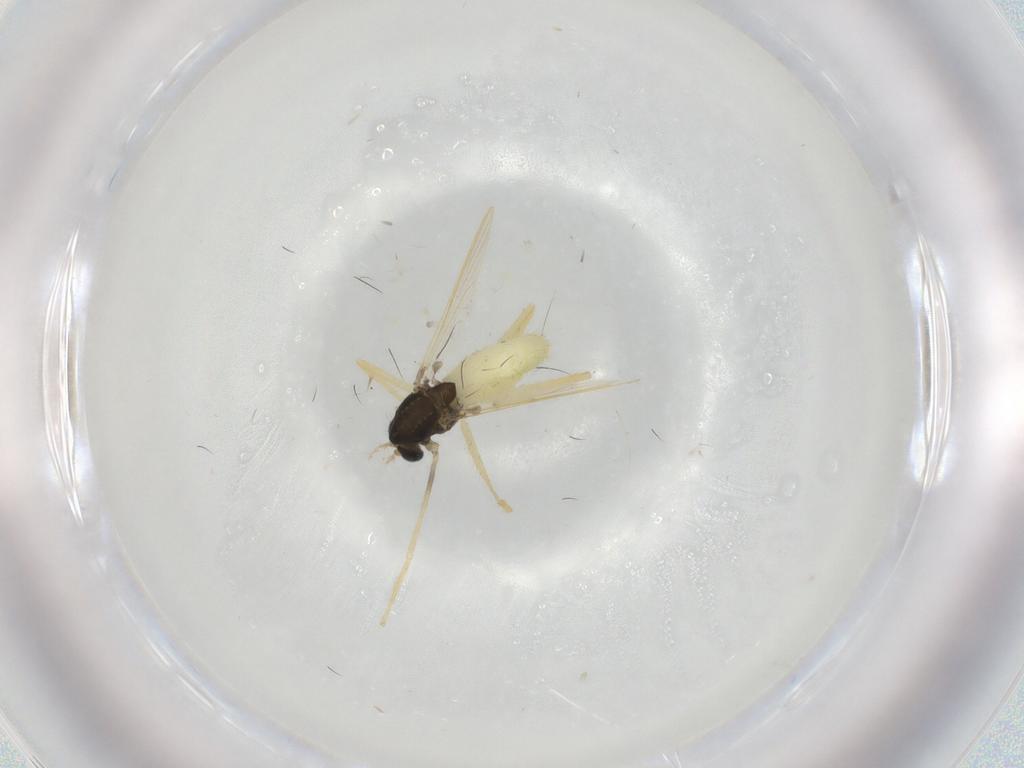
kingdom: Animalia
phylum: Arthropoda
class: Insecta
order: Diptera
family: Chironomidae
